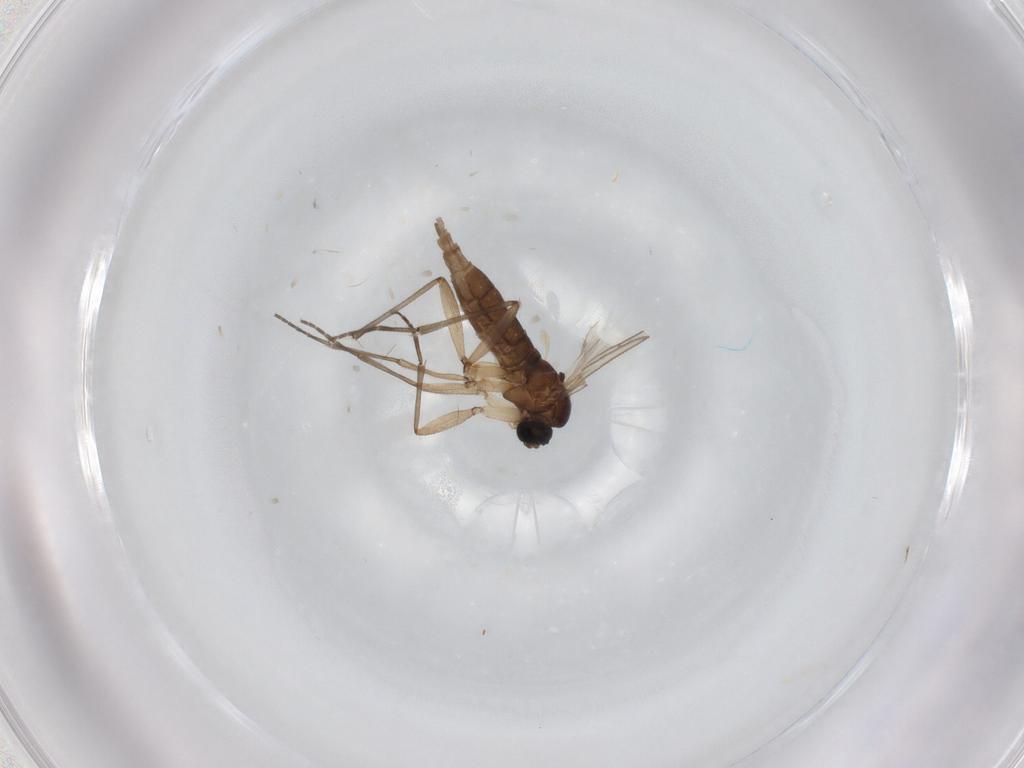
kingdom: Animalia
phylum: Arthropoda
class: Insecta
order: Diptera
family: Sciaridae
